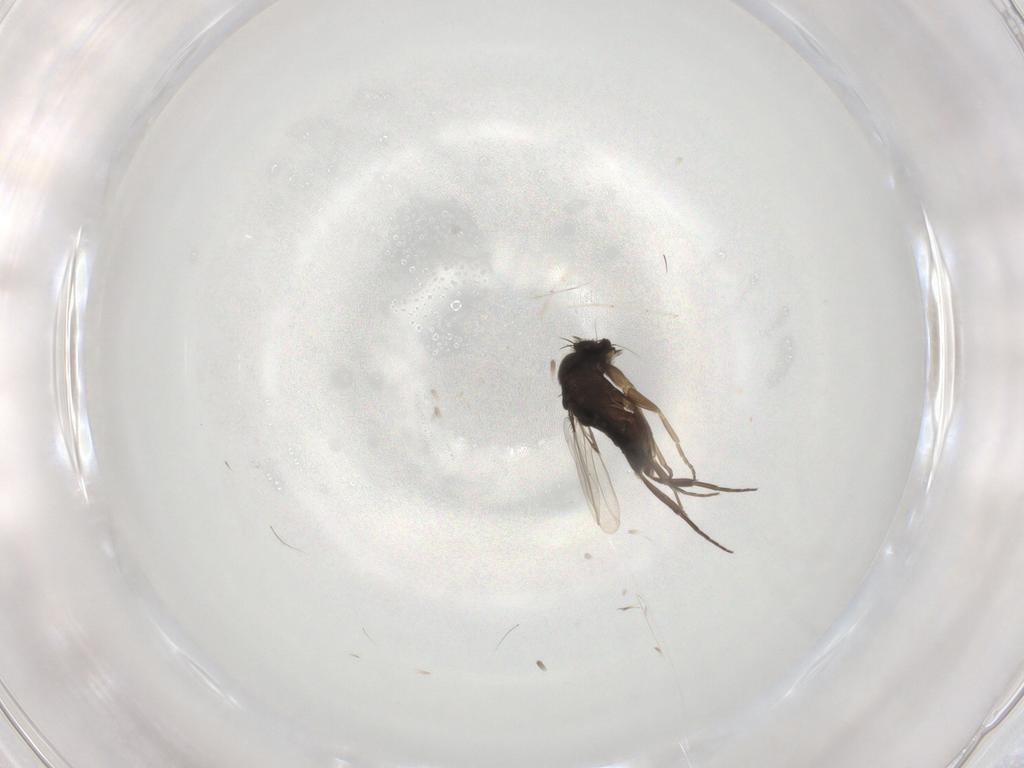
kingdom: Animalia
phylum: Arthropoda
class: Insecta
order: Diptera
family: Phoridae
